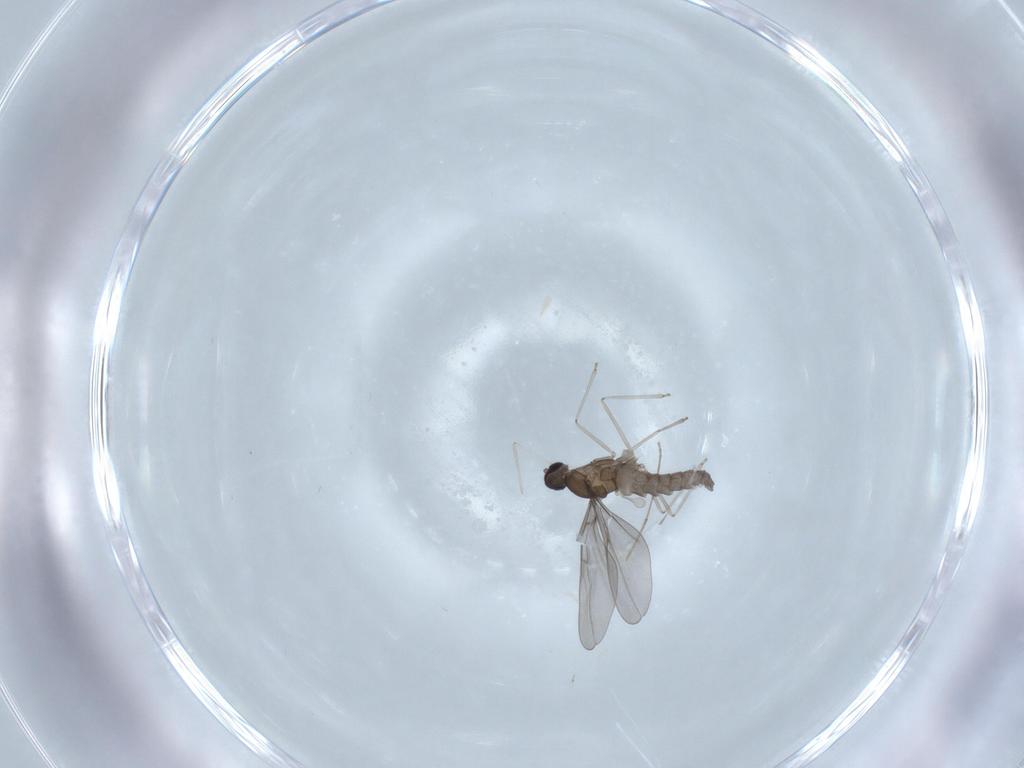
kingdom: Animalia
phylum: Arthropoda
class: Insecta
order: Diptera
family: Cecidomyiidae
